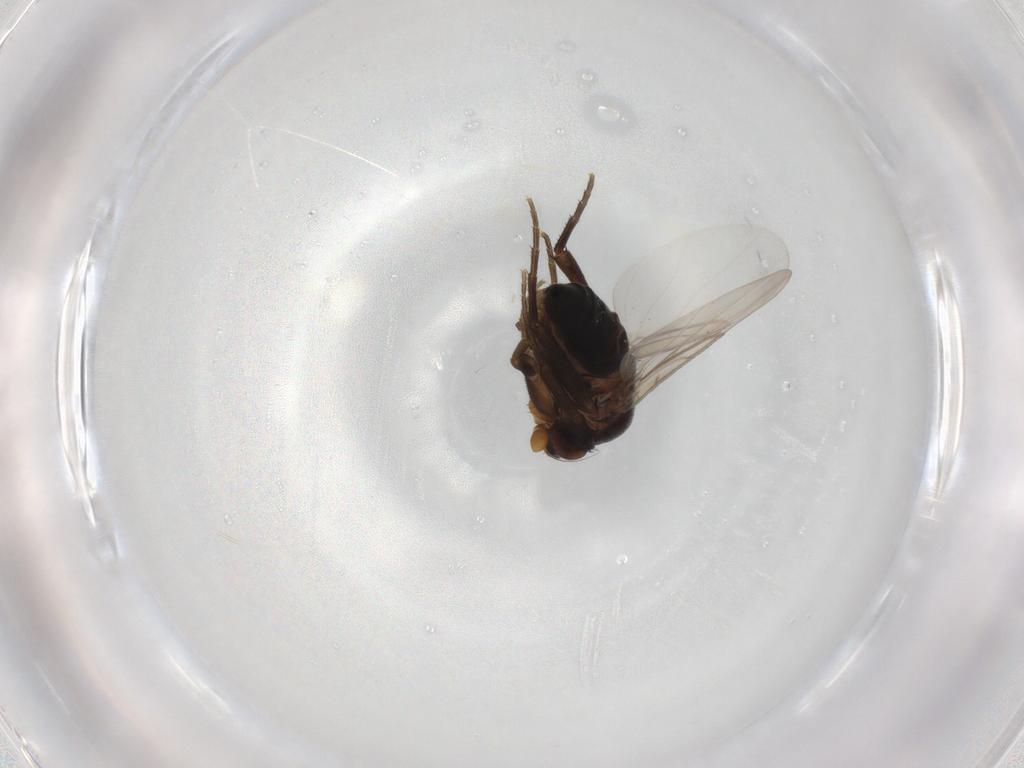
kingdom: Animalia
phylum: Arthropoda
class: Insecta
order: Diptera
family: Phoridae
